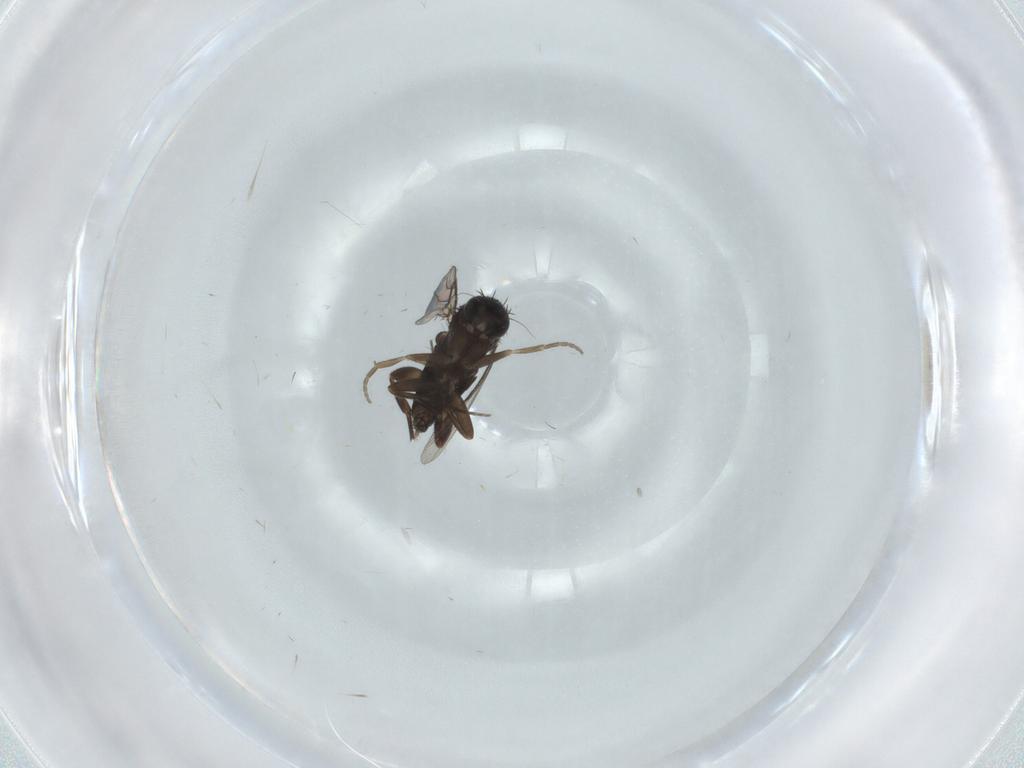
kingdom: Animalia
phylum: Arthropoda
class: Insecta
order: Diptera
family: Phoridae
